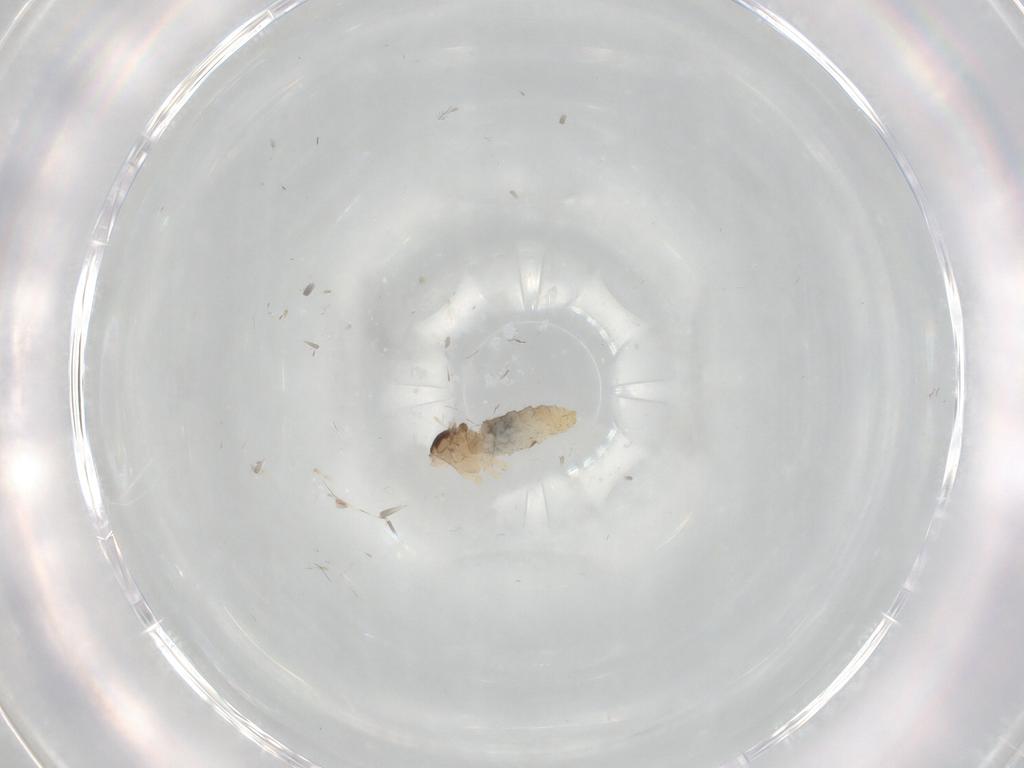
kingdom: Animalia
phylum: Arthropoda
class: Insecta
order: Diptera
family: Cecidomyiidae
